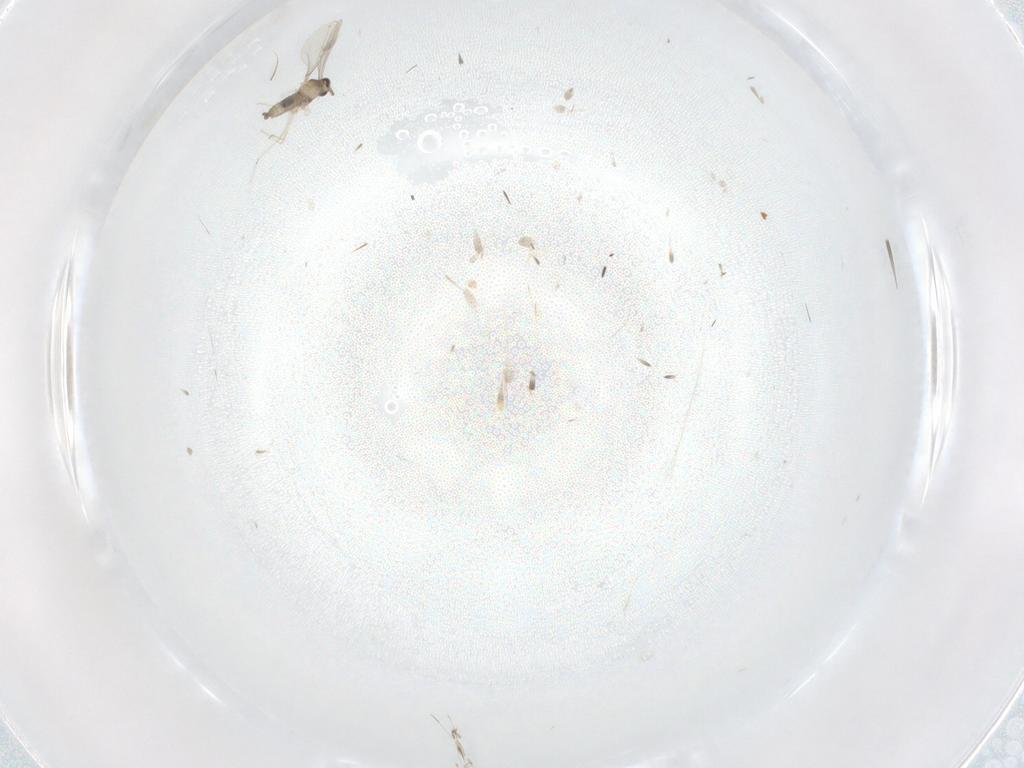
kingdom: Animalia
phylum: Arthropoda
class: Insecta
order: Diptera
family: Cecidomyiidae
